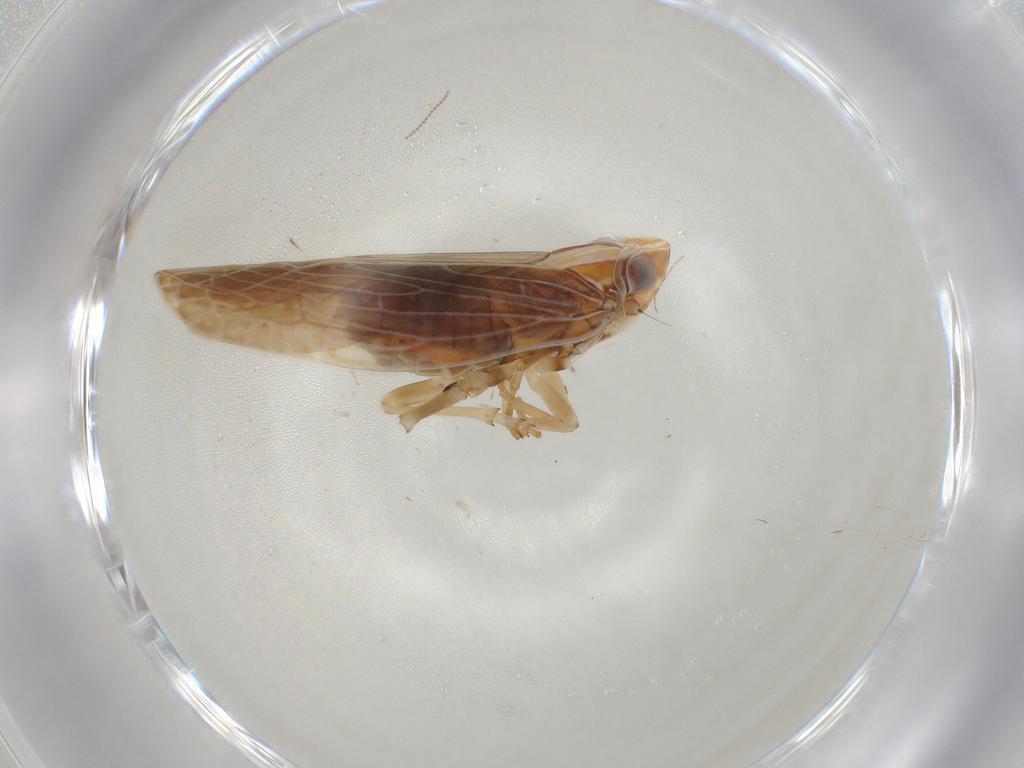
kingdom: Animalia
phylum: Arthropoda
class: Insecta
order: Hemiptera
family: Achilidae
